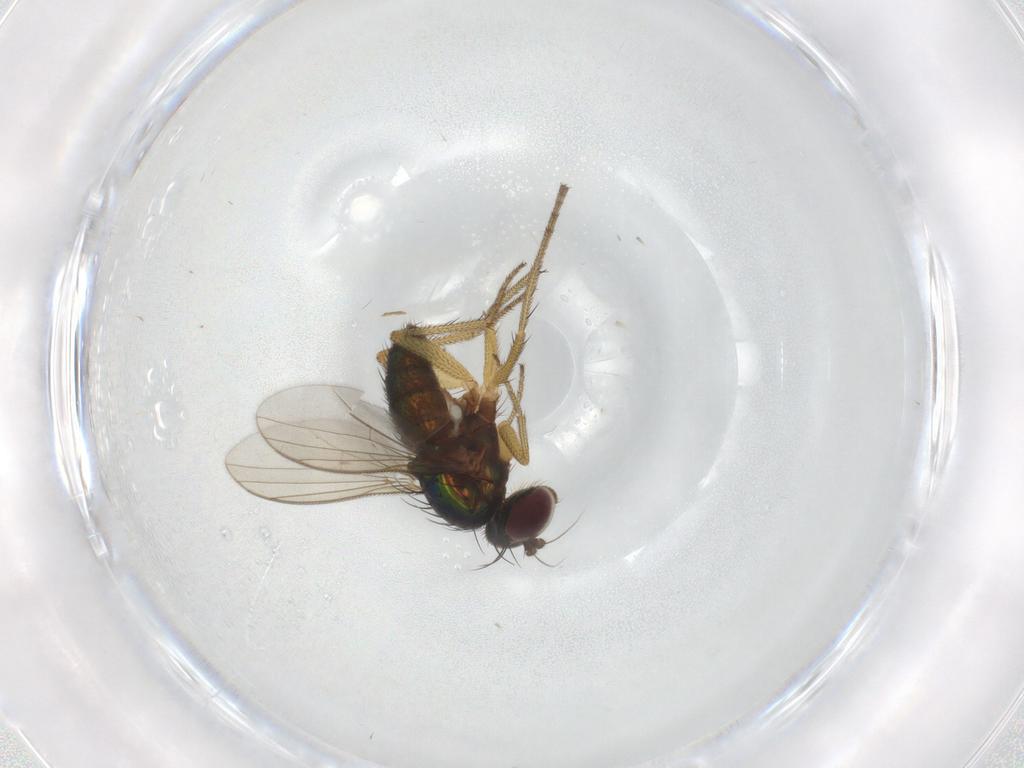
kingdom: Animalia
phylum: Arthropoda
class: Insecta
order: Diptera
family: Dolichopodidae
